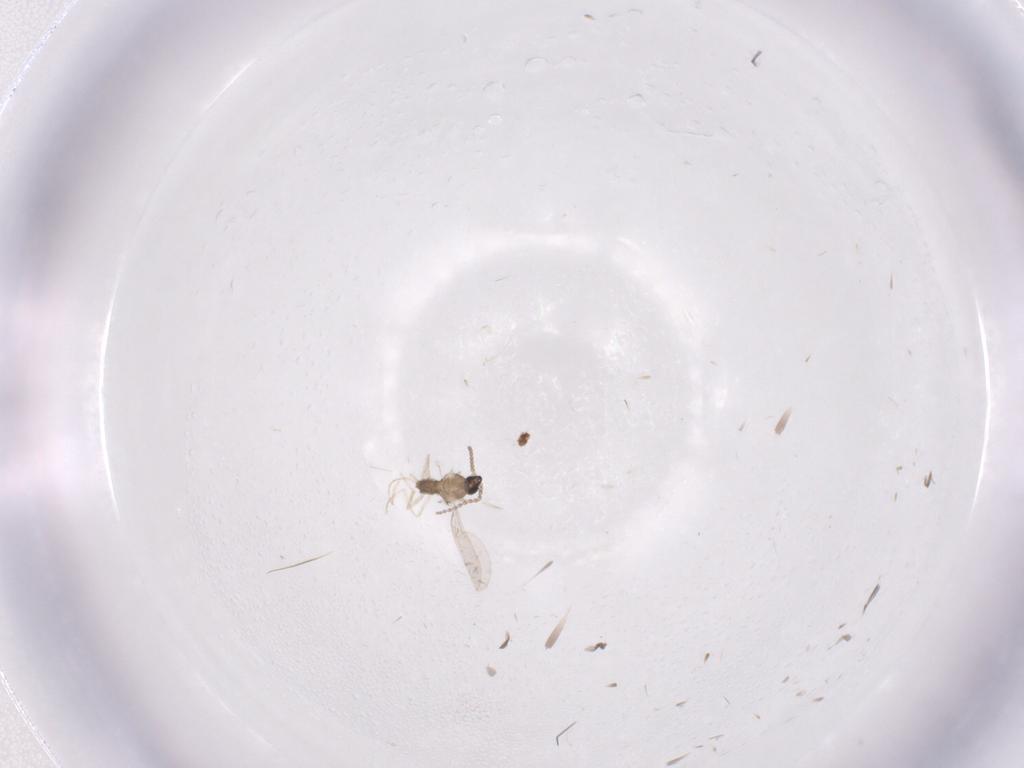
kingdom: Animalia
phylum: Arthropoda
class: Insecta
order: Diptera
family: Cecidomyiidae
